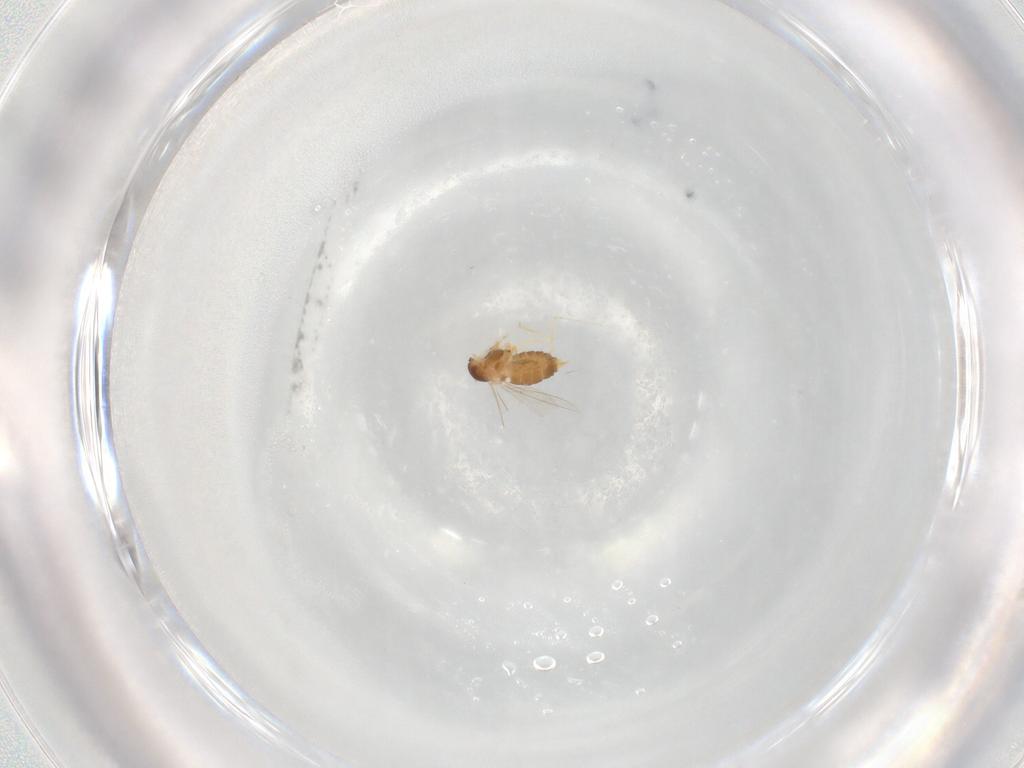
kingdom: Animalia
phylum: Arthropoda
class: Insecta
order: Diptera
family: Cecidomyiidae
